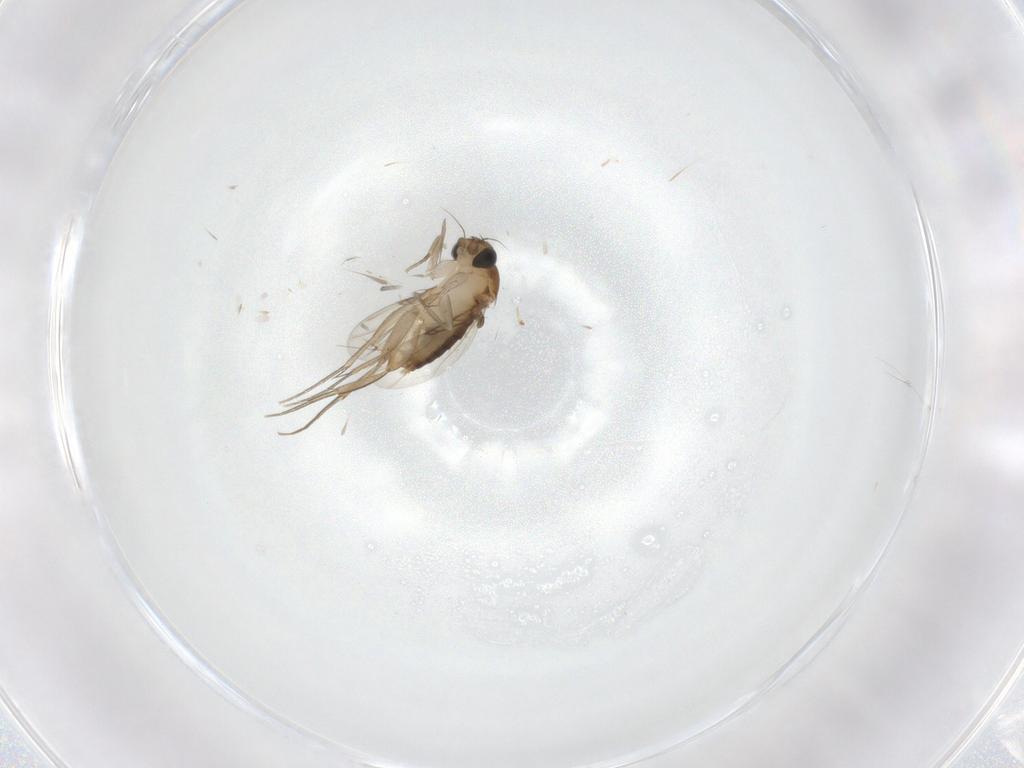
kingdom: Animalia
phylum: Arthropoda
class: Insecta
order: Diptera
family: Phoridae
